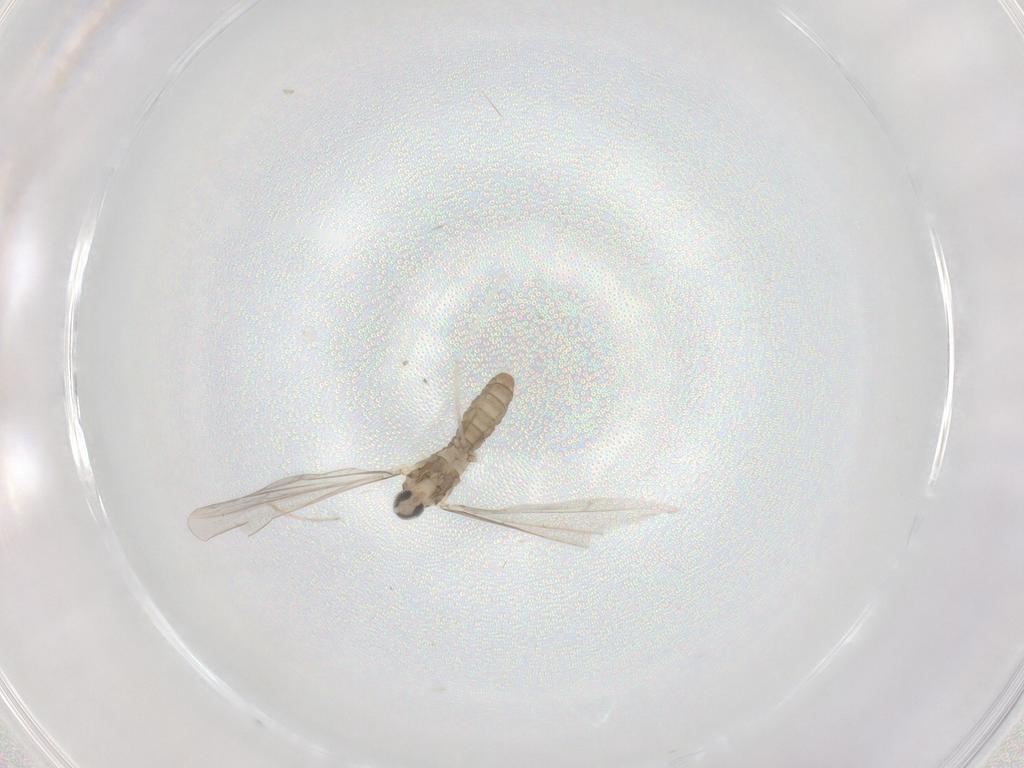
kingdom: Animalia
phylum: Arthropoda
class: Insecta
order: Diptera
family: Cecidomyiidae
